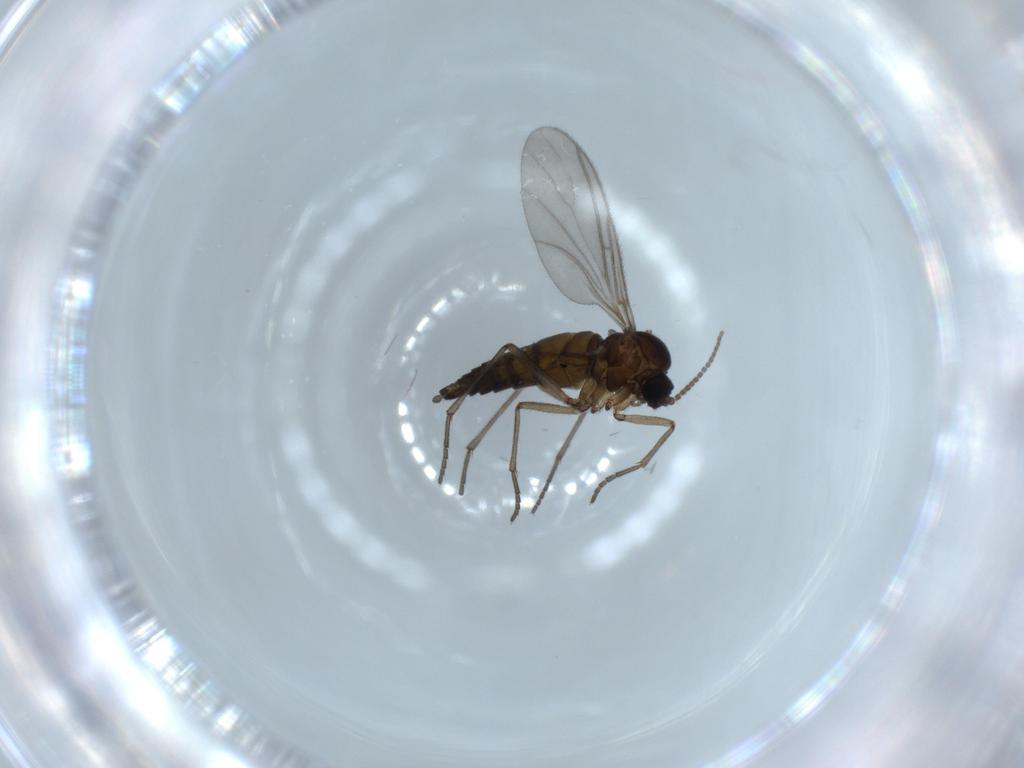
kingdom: Animalia
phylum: Arthropoda
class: Insecta
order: Diptera
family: Sciaridae
